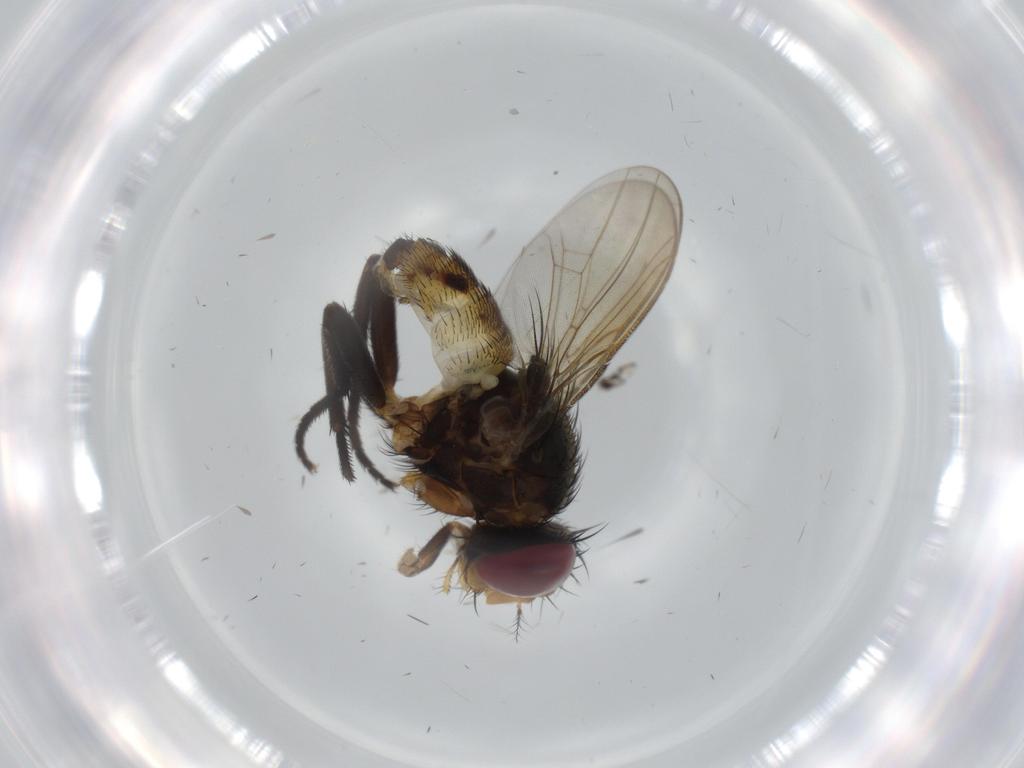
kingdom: Animalia
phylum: Arthropoda
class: Insecta
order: Diptera
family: Anthomyiidae
